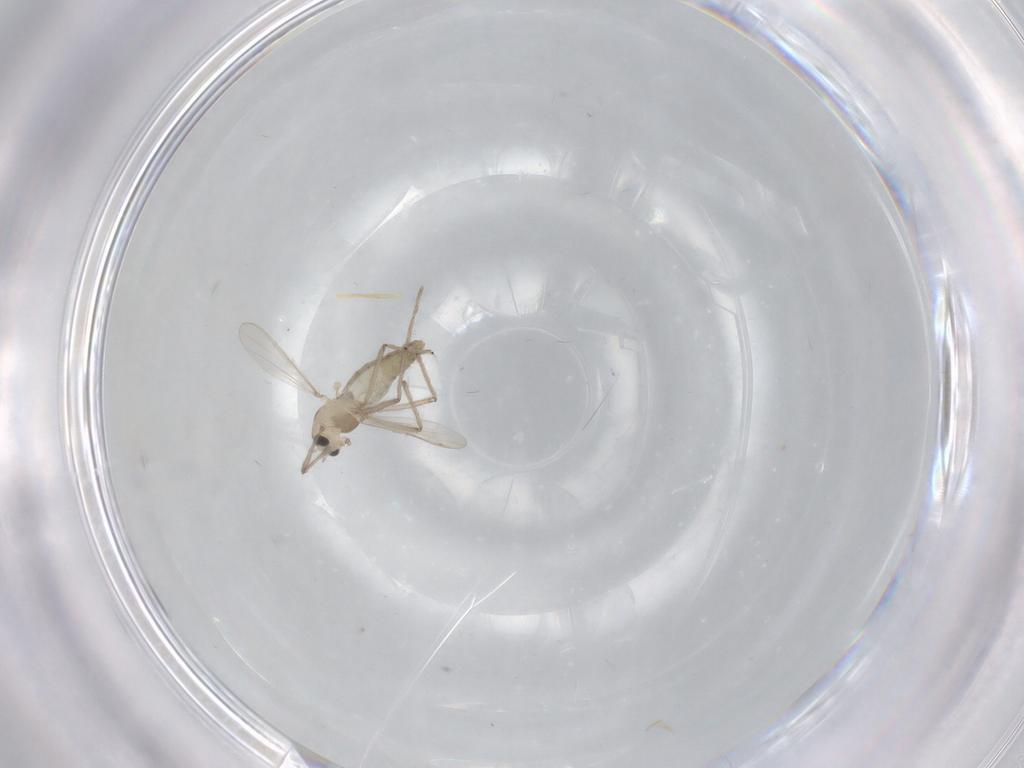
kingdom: Animalia
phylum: Arthropoda
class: Insecta
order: Diptera
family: Chironomidae
